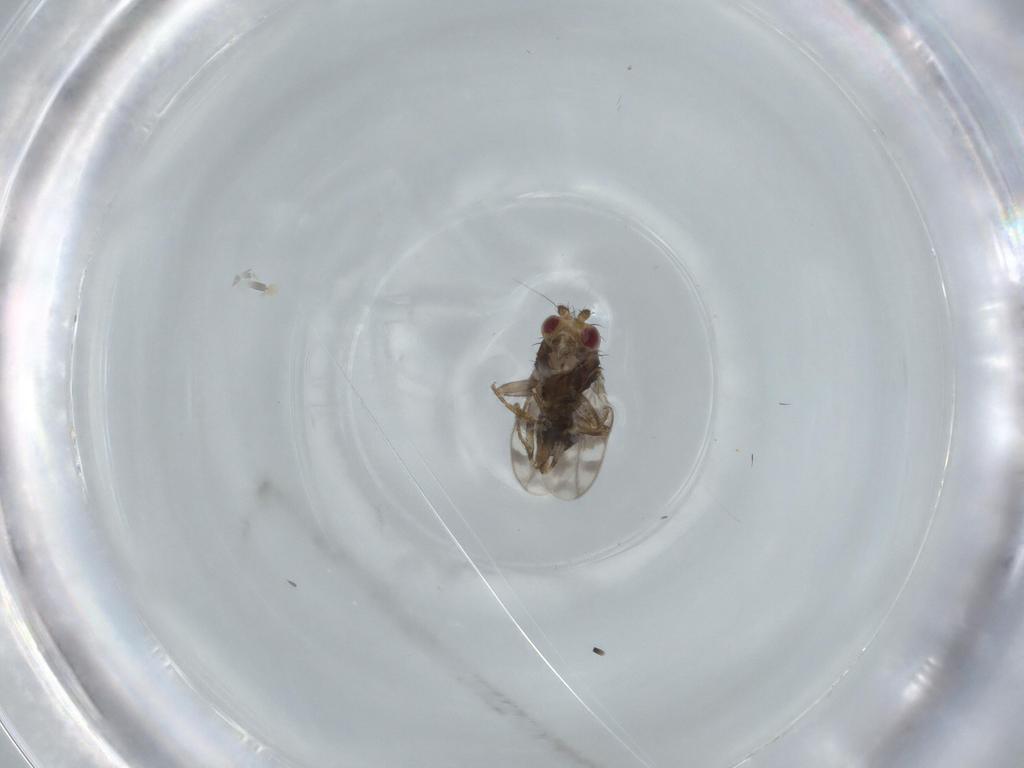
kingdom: Animalia
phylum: Arthropoda
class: Insecta
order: Diptera
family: Sphaeroceridae
